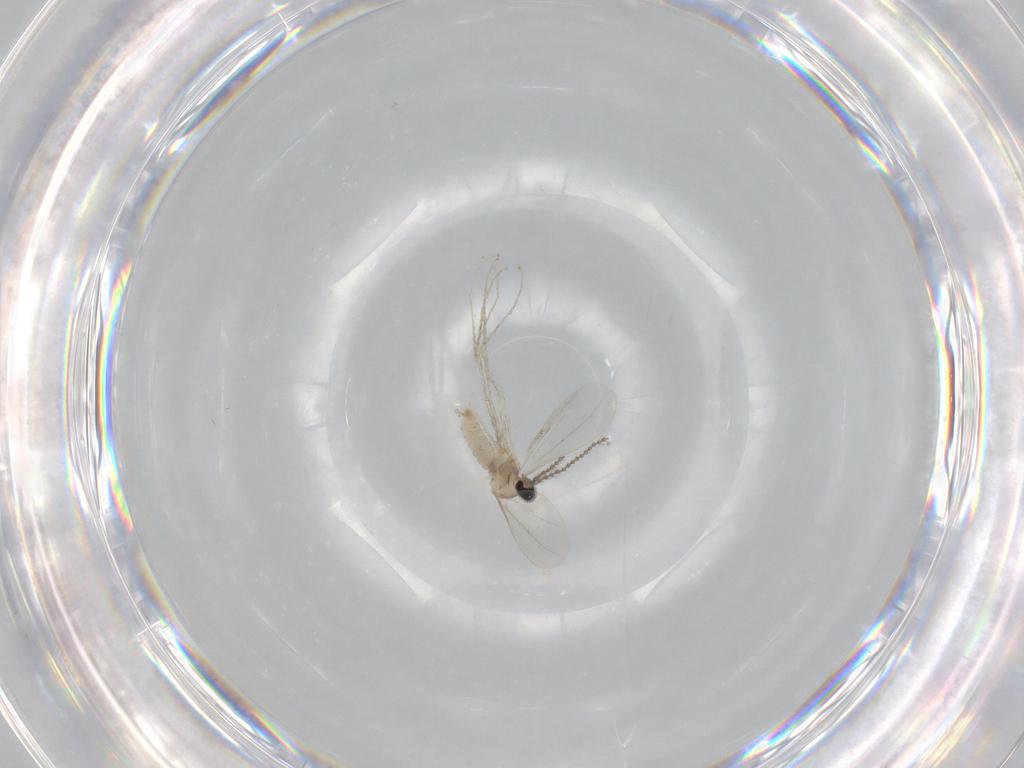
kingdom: Animalia
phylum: Arthropoda
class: Insecta
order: Diptera
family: Cecidomyiidae
